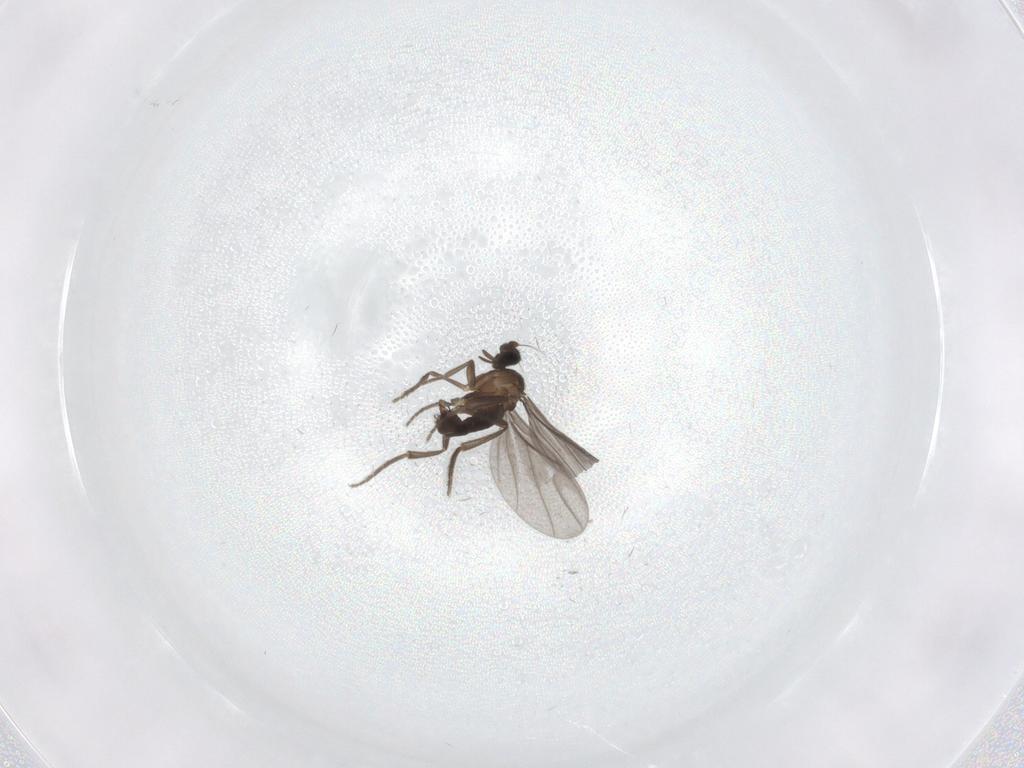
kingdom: Animalia
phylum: Arthropoda
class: Insecta
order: Diptera
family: Phoridae
